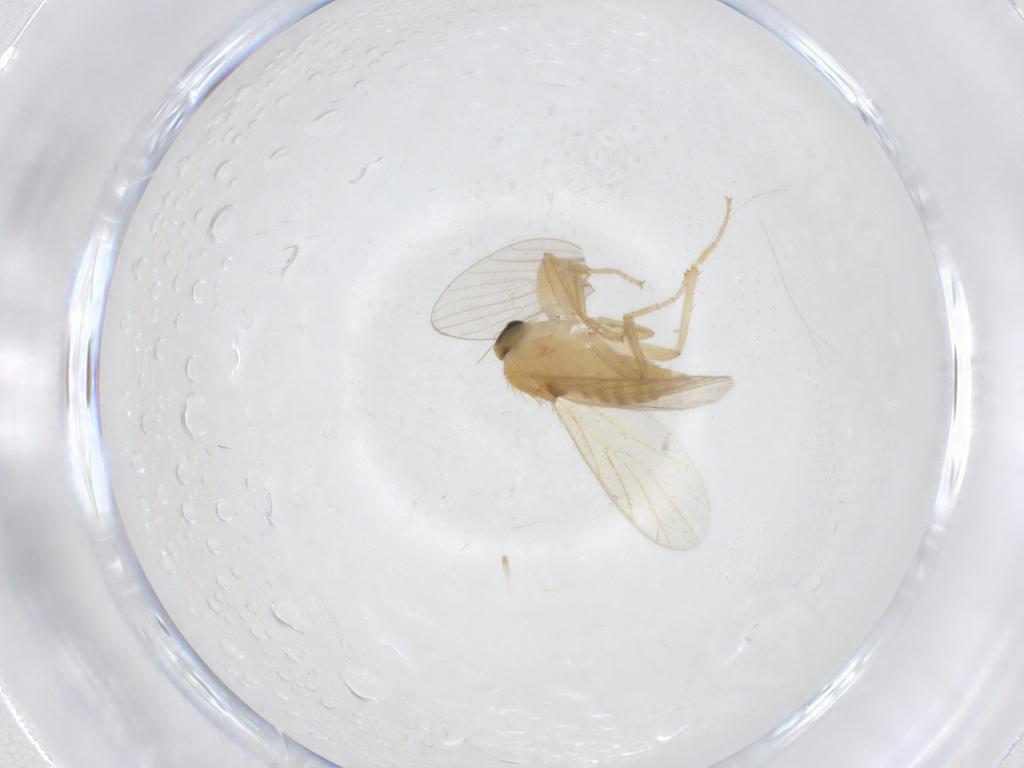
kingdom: Animalia
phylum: Arthropoda
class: Insecta
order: Diptera
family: Hybotidae
